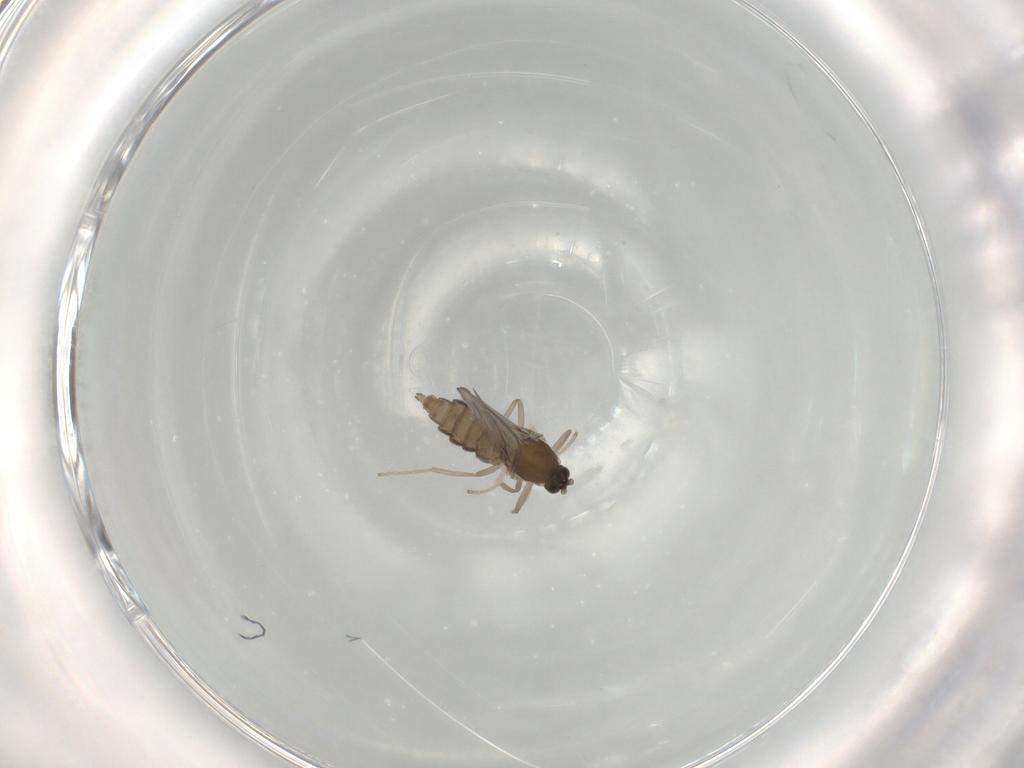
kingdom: Animalia
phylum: Arthropoda
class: Insecta
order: Diptera
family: Cecidomyiidae
